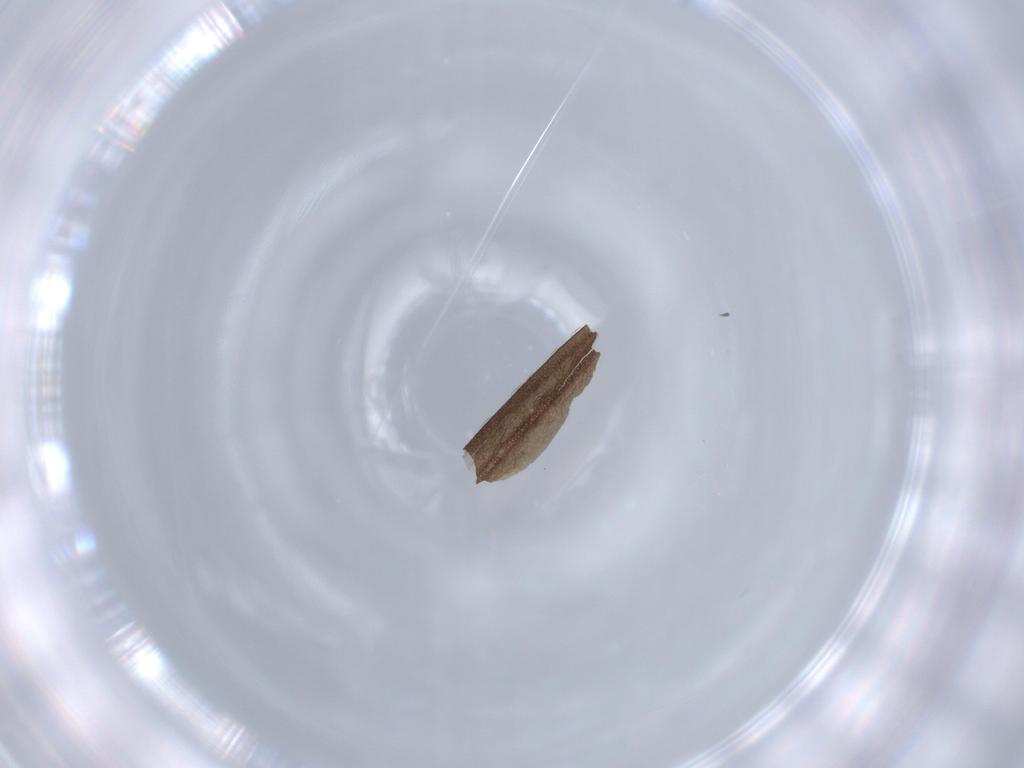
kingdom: Animalia
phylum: Arthropoda
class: Insecta
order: Trichoptera
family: Molannidae
